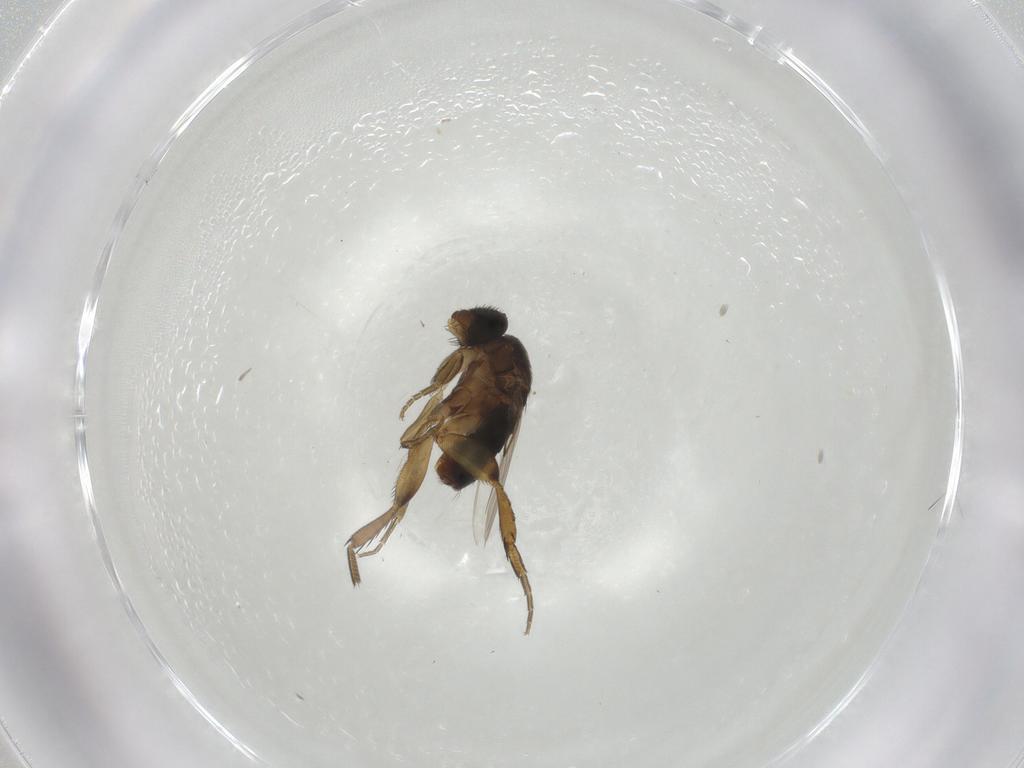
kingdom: Animalia
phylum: Arthropoda
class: Insecta
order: Diptera
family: Phoridae
